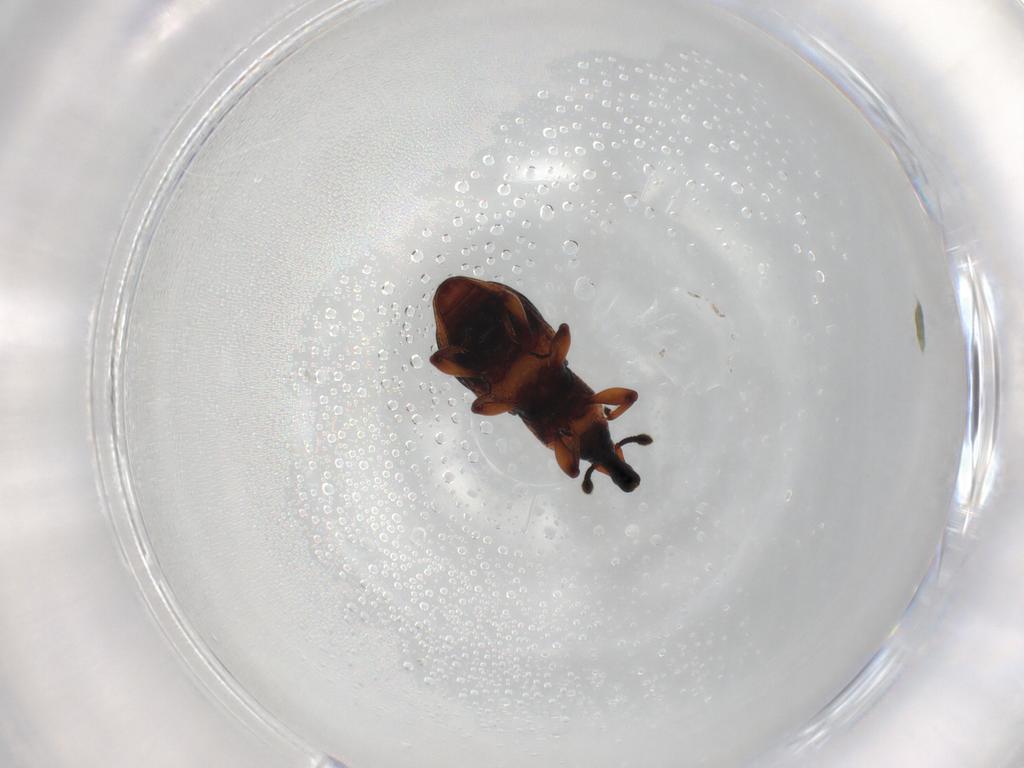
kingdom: Animalia
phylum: Arthropoda
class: Insecta
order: Coleoptera
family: Curculionidae
